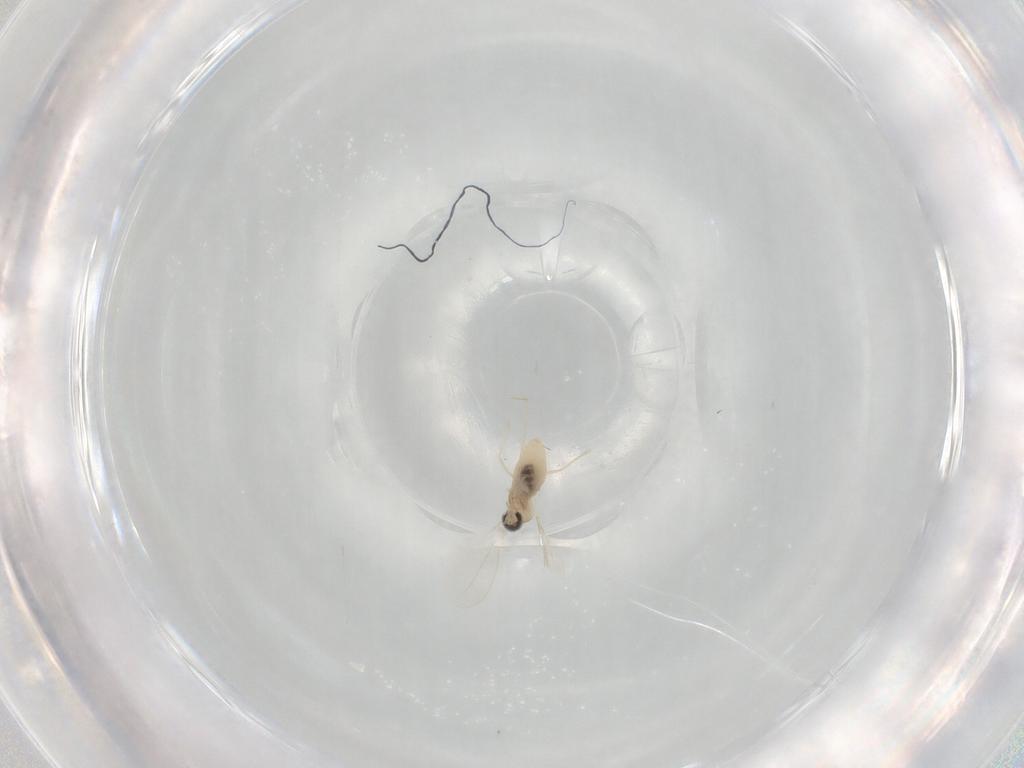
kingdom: Animalia
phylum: Arthropoda
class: Insecta
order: Diptera
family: Cecidomyiidae
